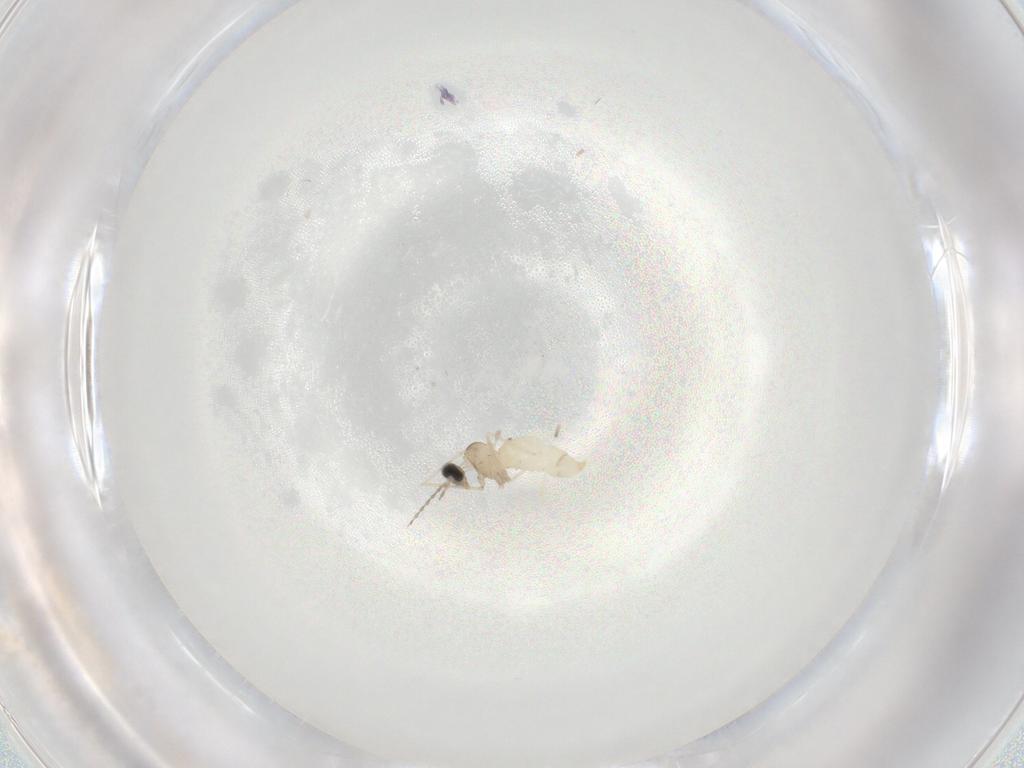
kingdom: Animalia
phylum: Arthropoda
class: Insecta
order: Diptera
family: Cecidomyiidae
